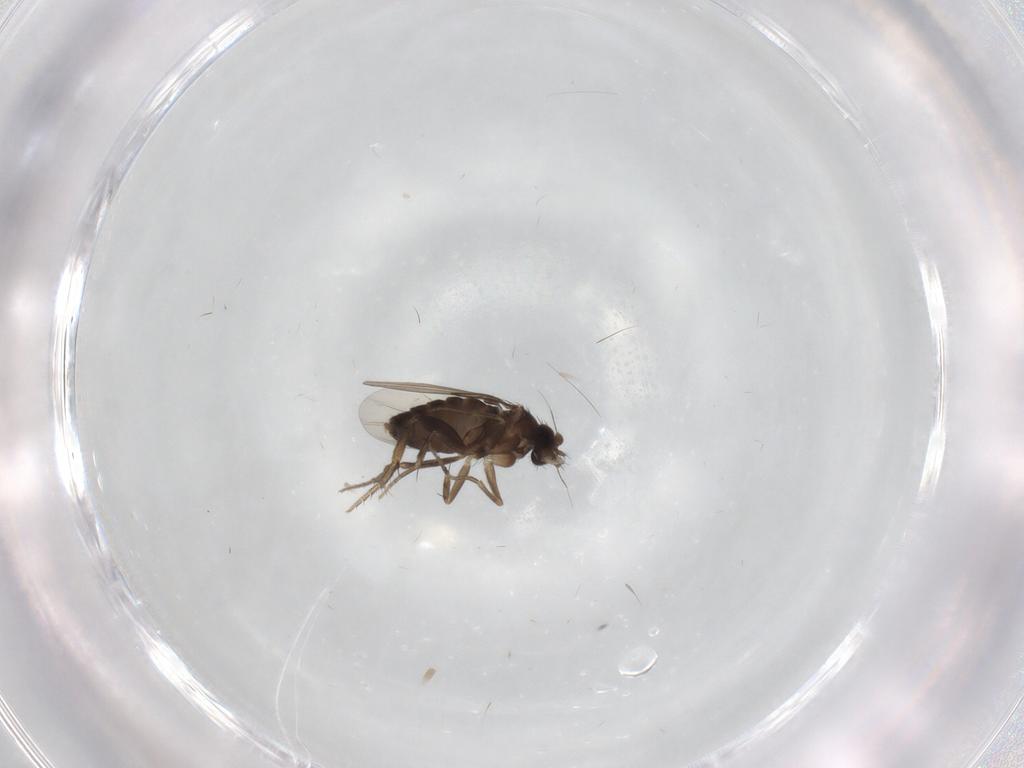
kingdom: Animalia
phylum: Arthropoda
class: Insecta
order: Diptera
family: Phoridae
